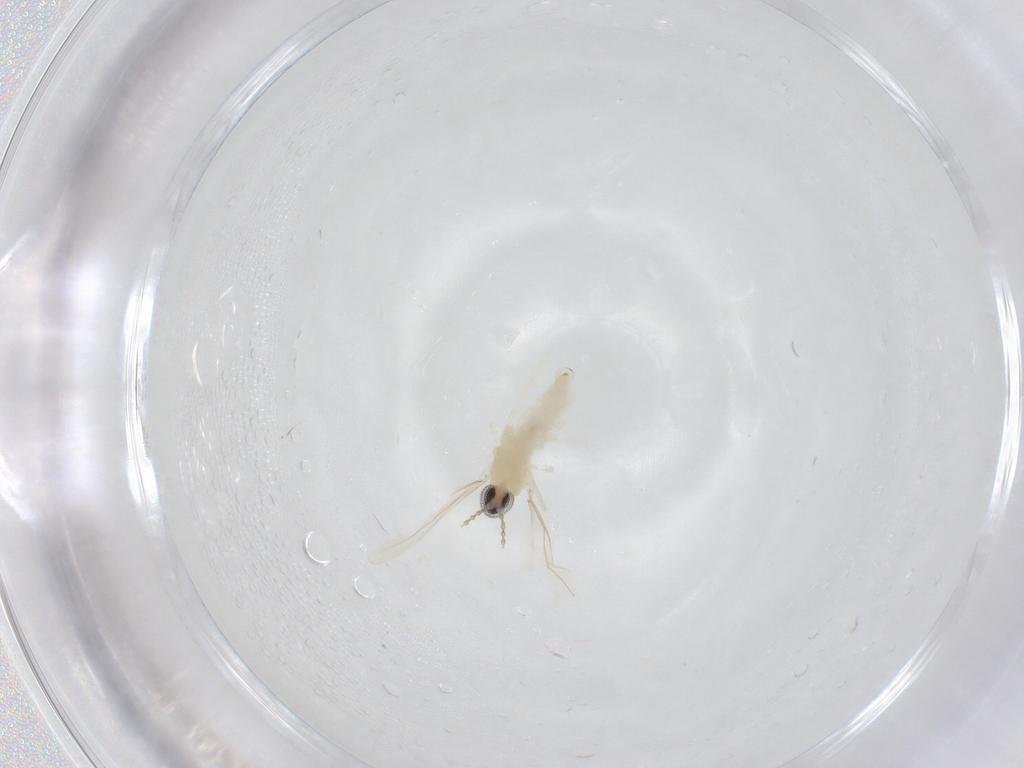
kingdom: Animalia
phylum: Arthropoda
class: Insecta
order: Diptera
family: Cecidomyiidae
